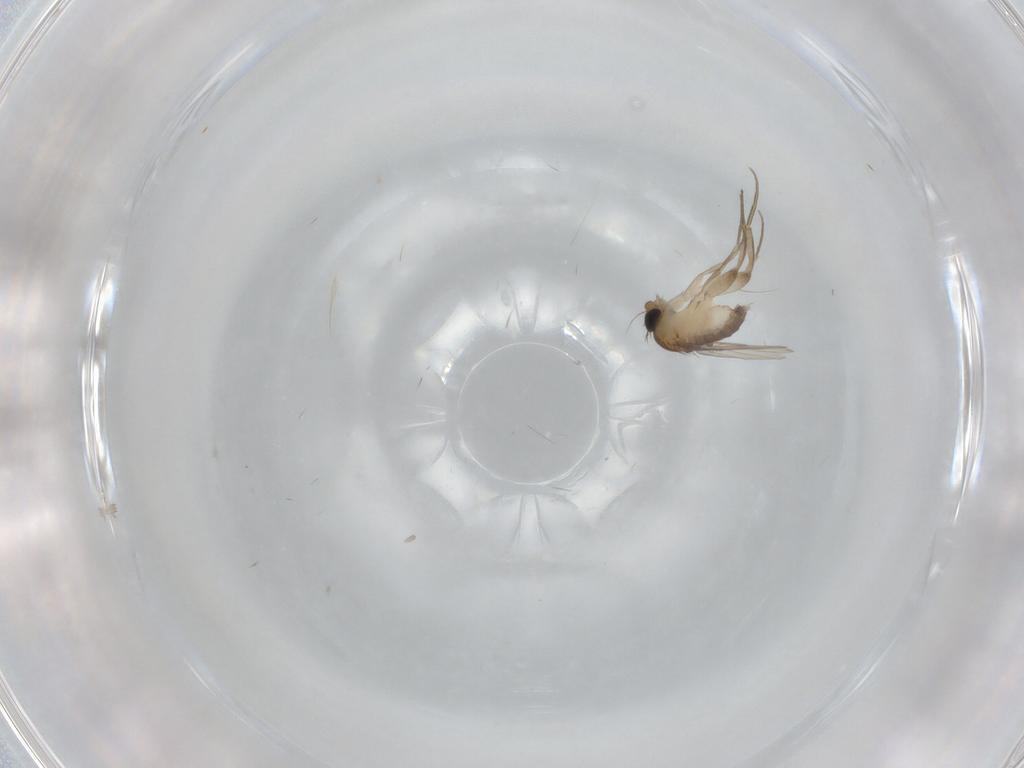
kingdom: Animalia
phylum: Arthropoda
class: Insecta
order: Diptera
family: Phoridae
